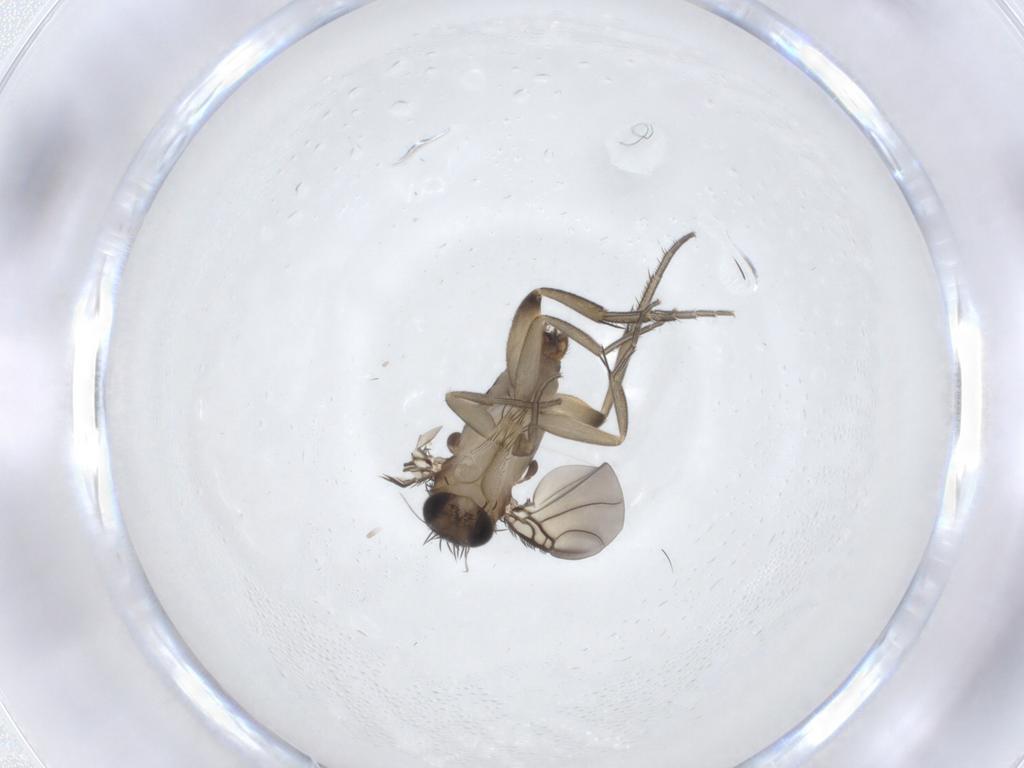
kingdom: Animalia
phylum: Arthropoda
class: Insecta
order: Diptera
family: Phoridae
